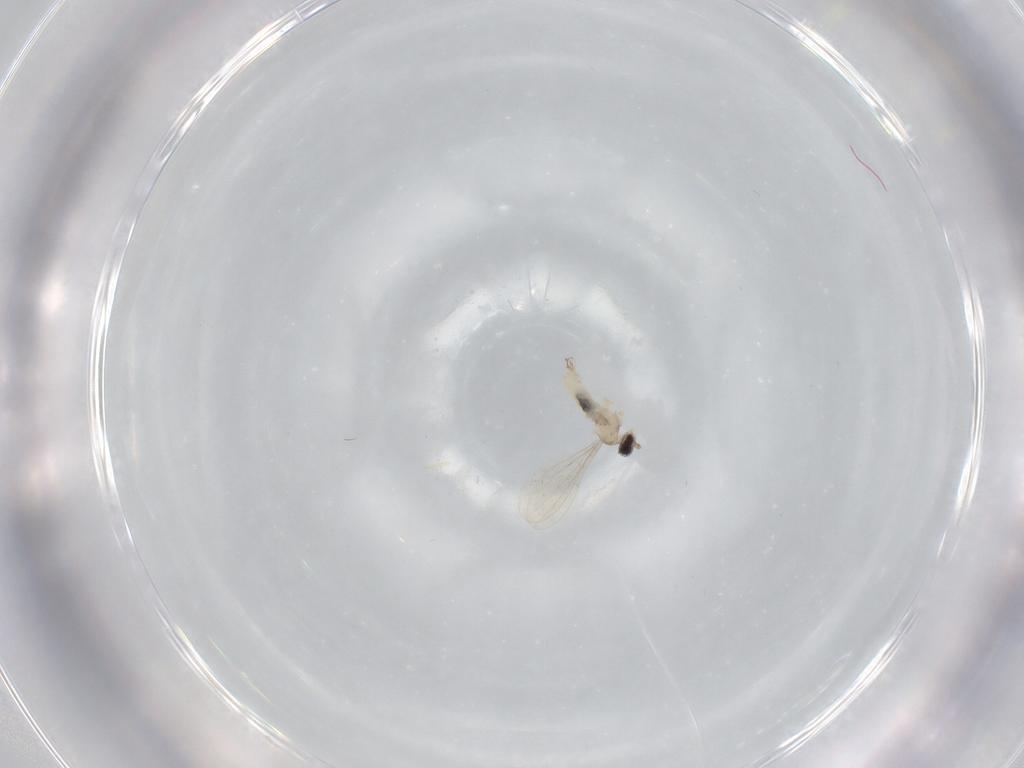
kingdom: Animalia
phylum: Arthropoda
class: Insecta
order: Diptera
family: Cecidomyiidae
